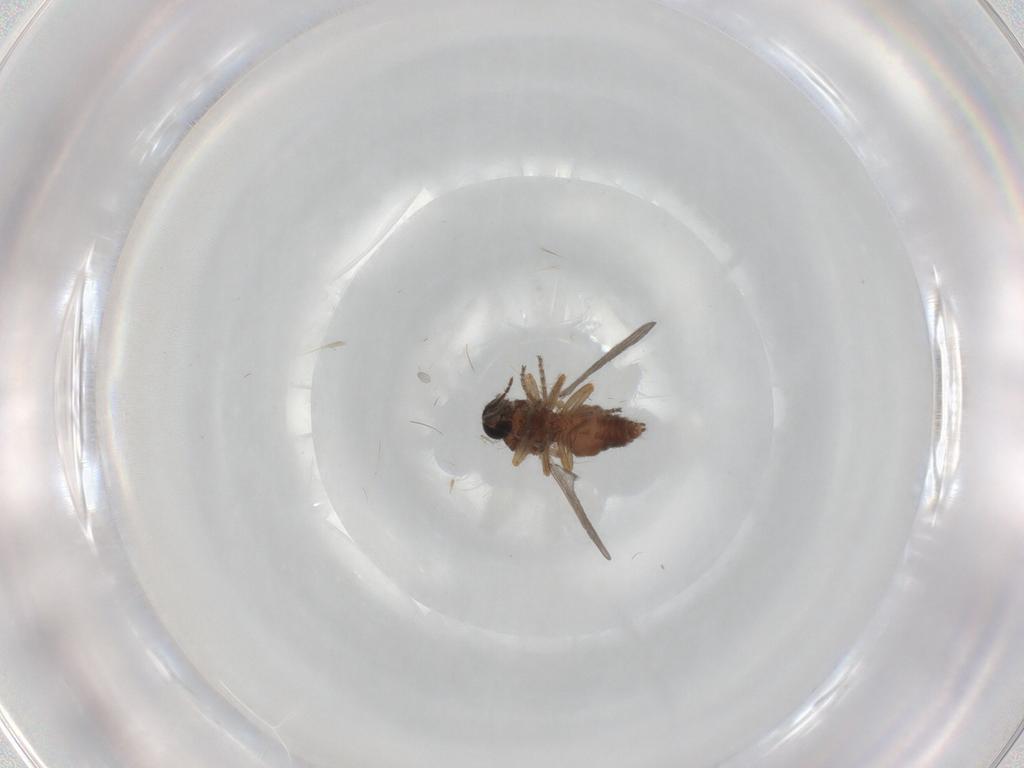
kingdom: Animalia
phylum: Arthropoda
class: Insecta
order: Diptera
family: Ceratopogonidae
